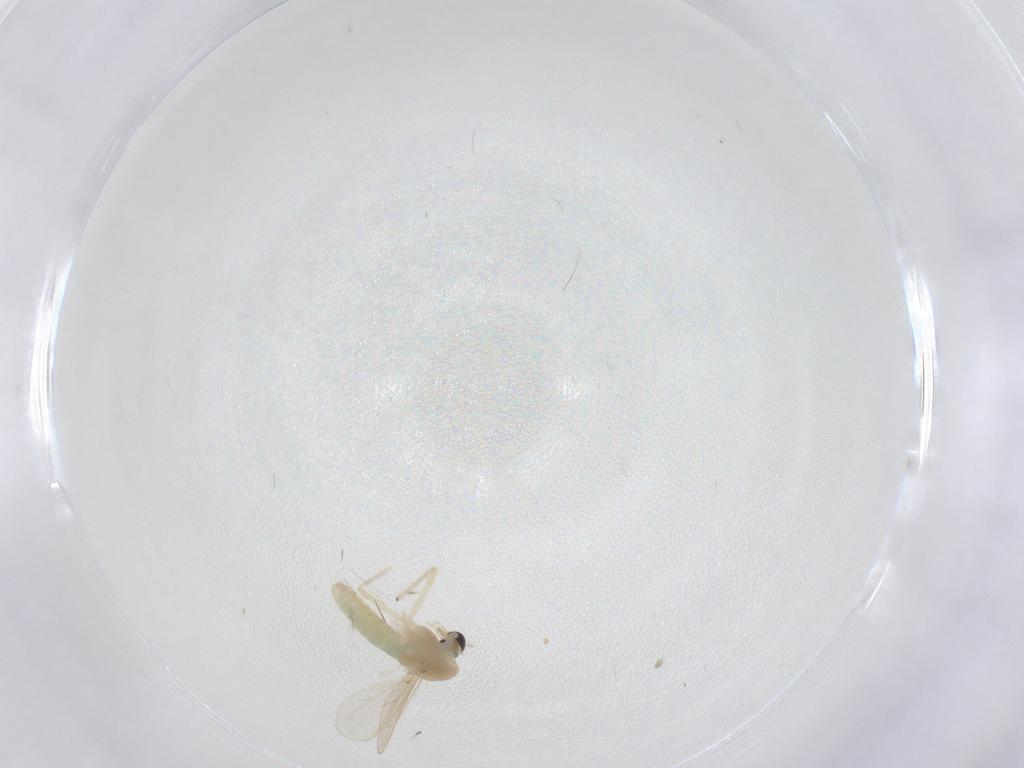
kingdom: Animalia
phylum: Arthropoda
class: Insecta
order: Diptera
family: Chironomidae
